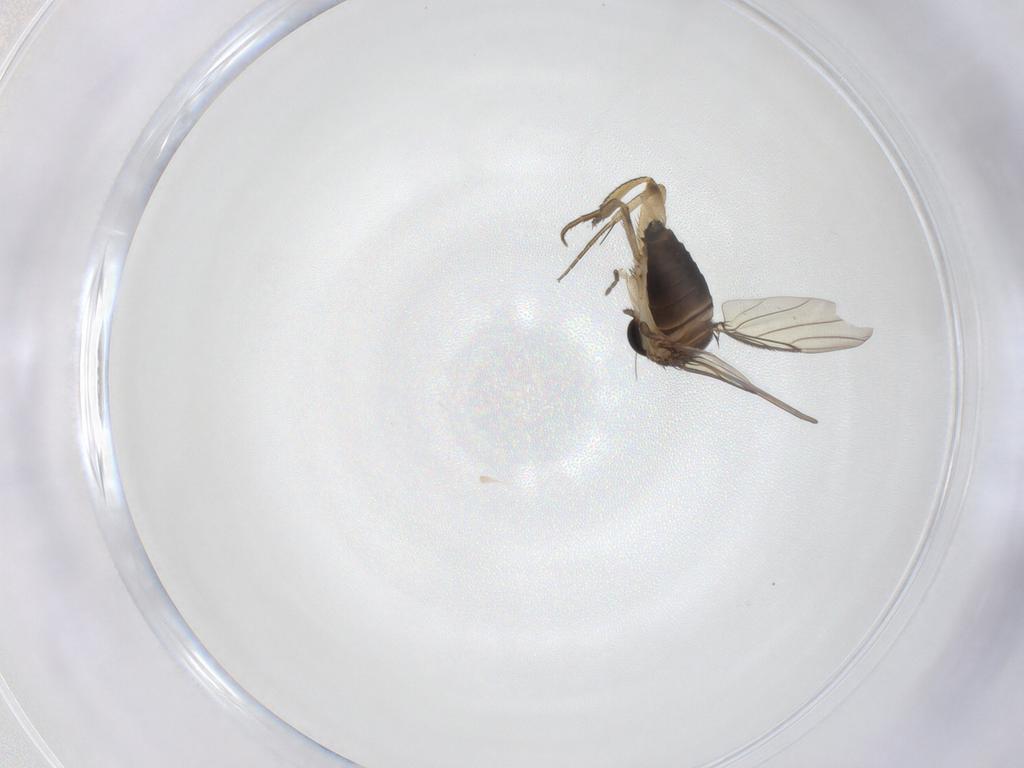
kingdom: Animalia
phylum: Arthropoda
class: Insecta
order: Diptera
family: Phoridae
